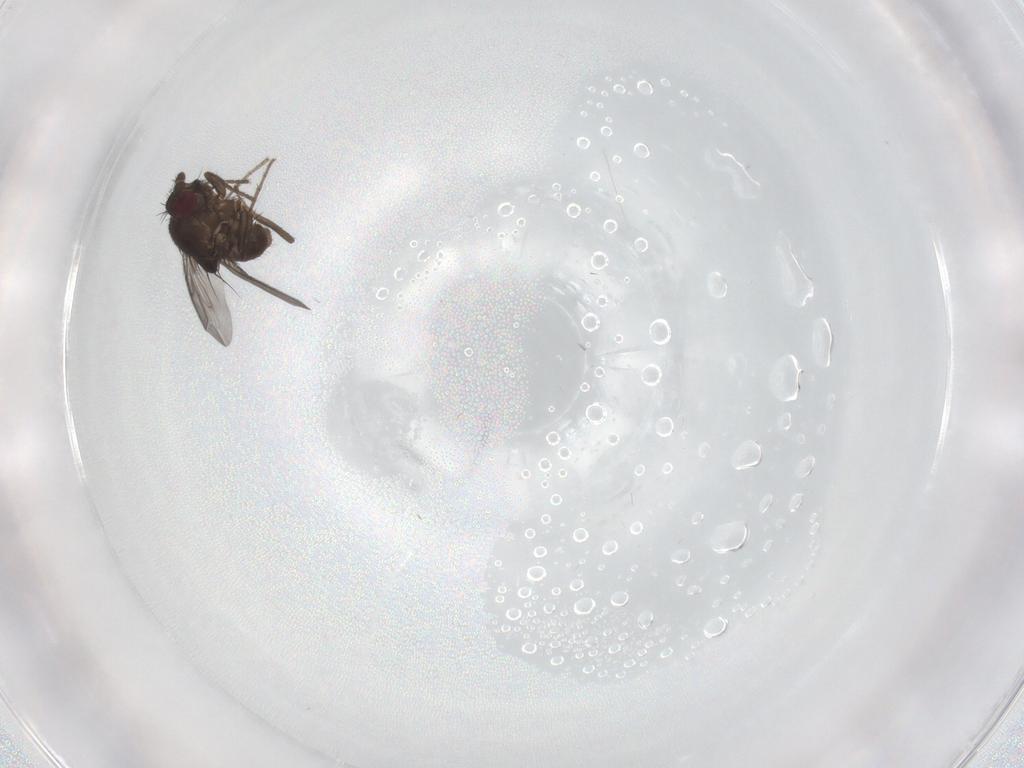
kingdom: Animalia
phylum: Arthropoda
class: Insecta
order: Diptera
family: Sphaeroceridae
